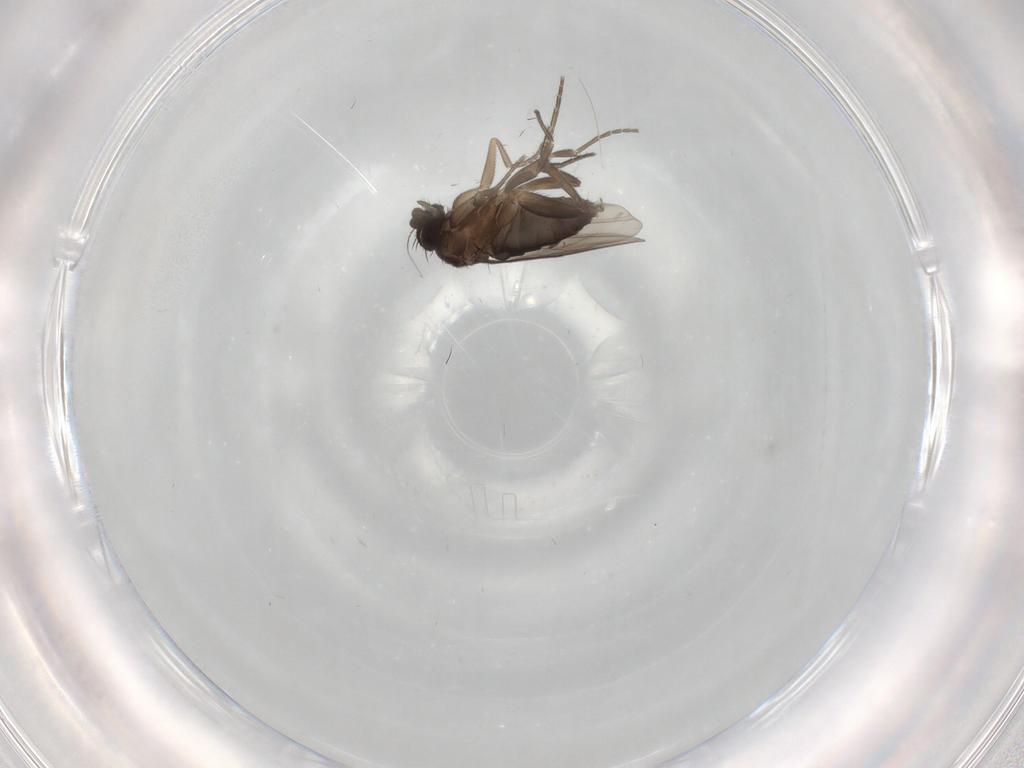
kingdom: Animalia
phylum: Arthropoda
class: Insecta
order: Diptera
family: Phoridae
